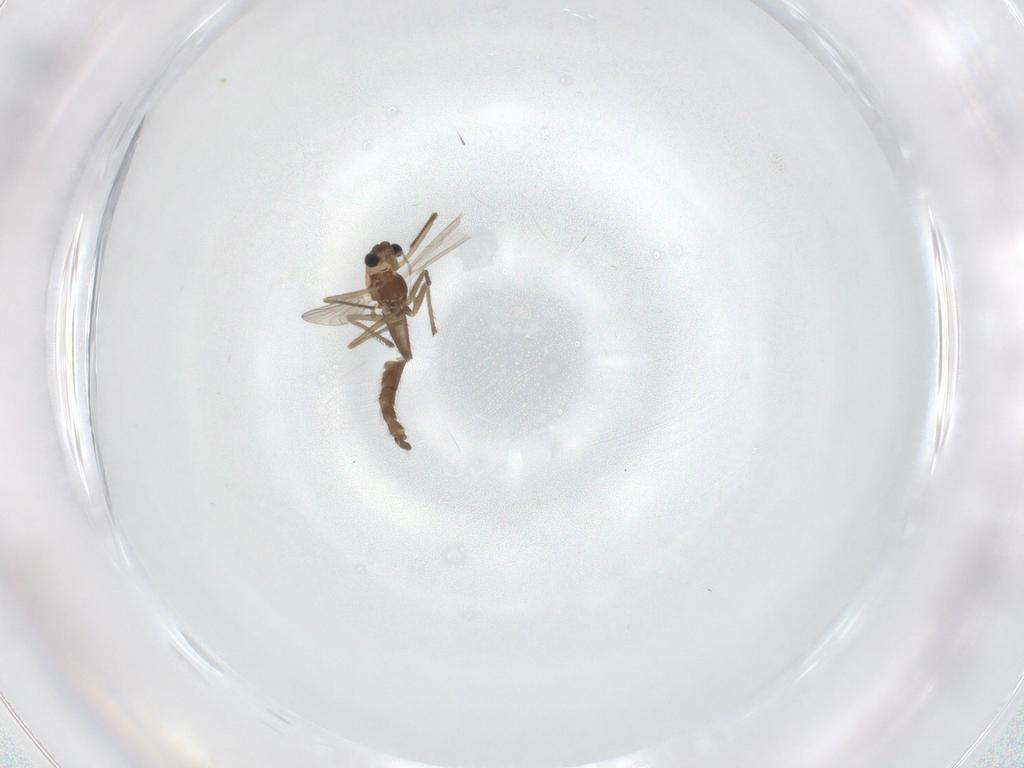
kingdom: Animalia
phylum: Arthropoda
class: Insecta
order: Diptera
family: Chironomidae
